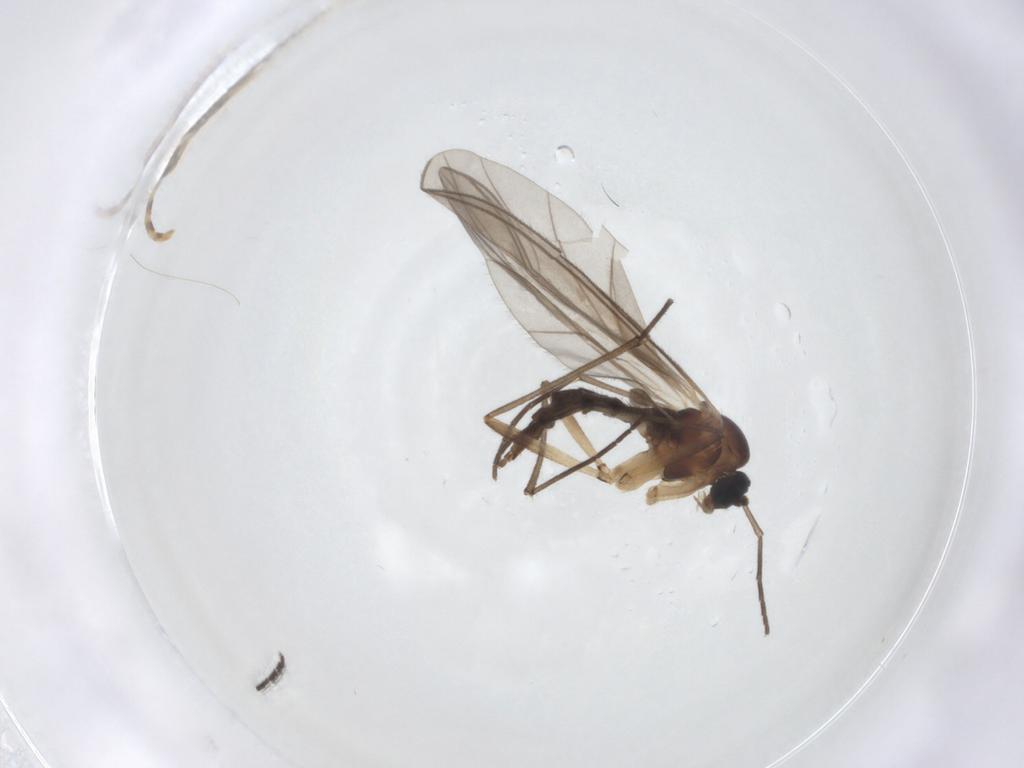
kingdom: Animalia
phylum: Arthropoda
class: Insecta
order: Diptera
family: Sciaridae
